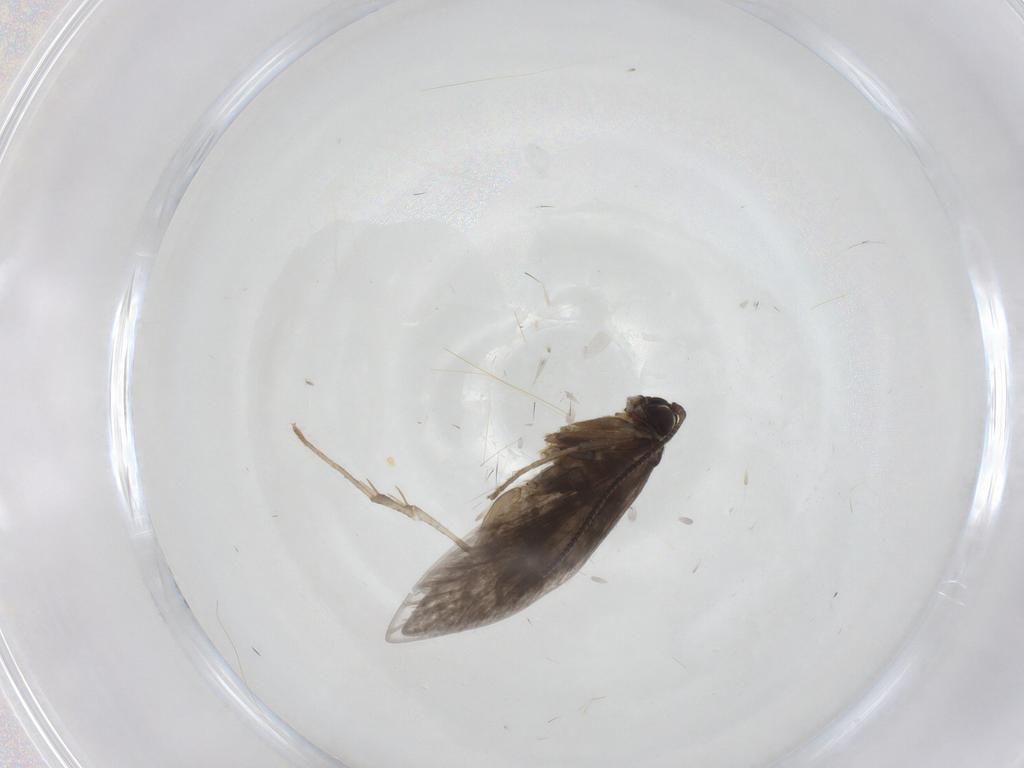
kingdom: Animalia
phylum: Arthropoda
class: Insecta
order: Lepidoptera
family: Micropterigidae
